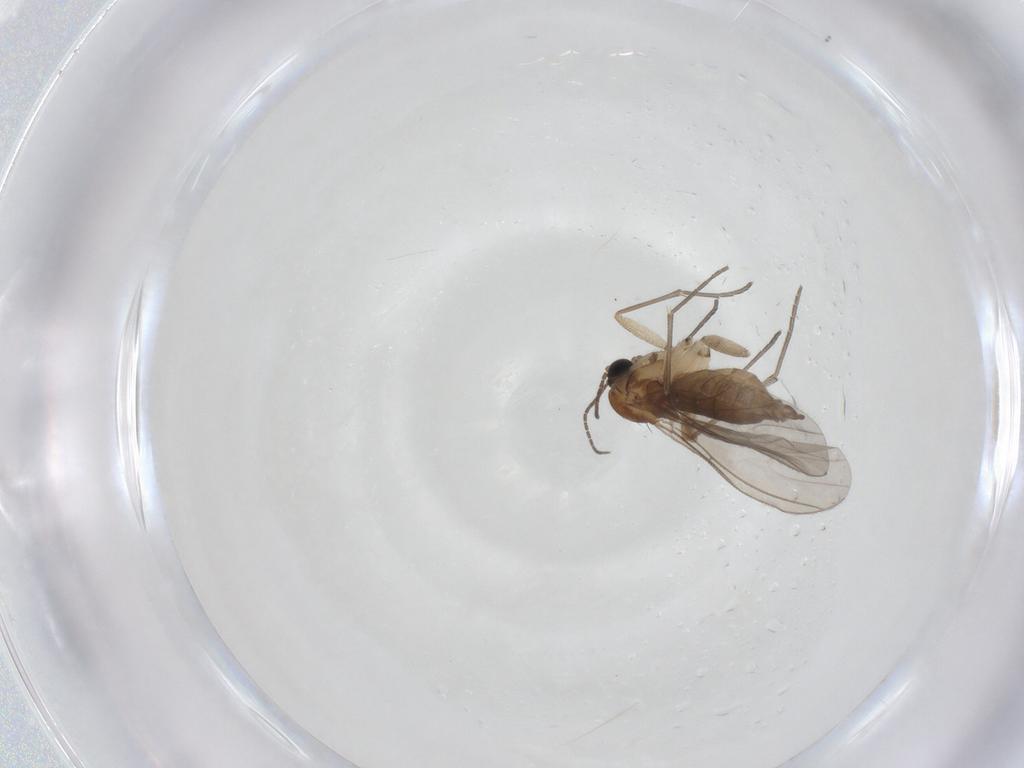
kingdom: Animalia
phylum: Arthropoda
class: Insecta
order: Diptera
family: Sciaridae
